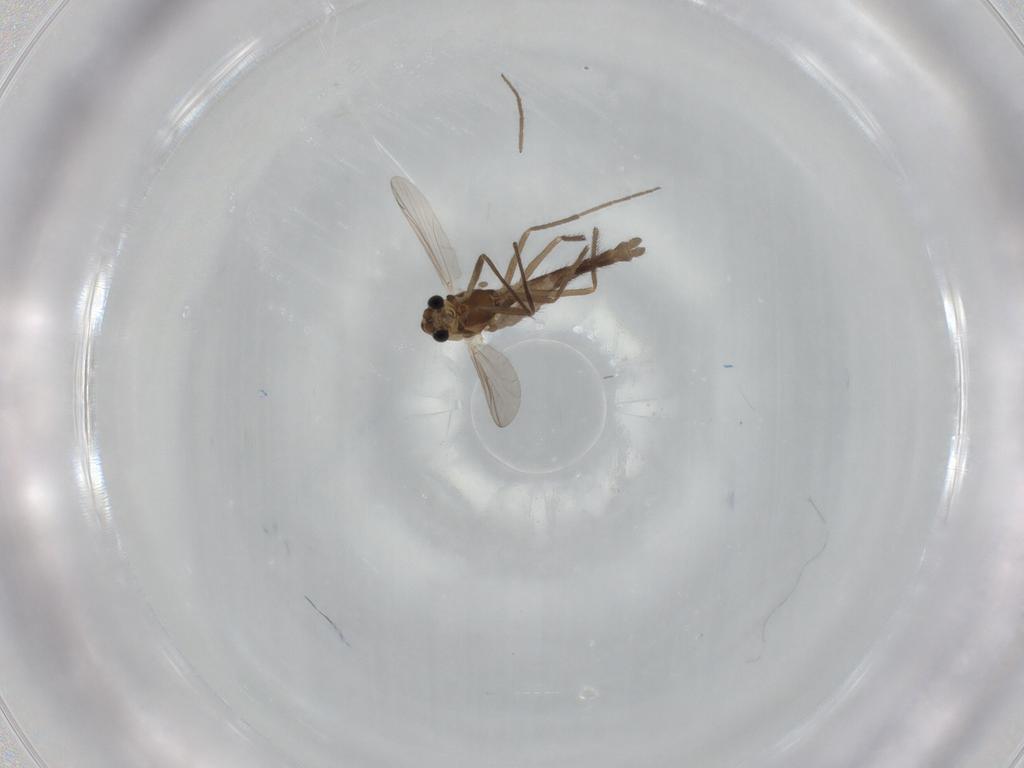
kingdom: Animalia
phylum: Arthropoda
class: Insecta
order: Diptera
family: Chironomidae
